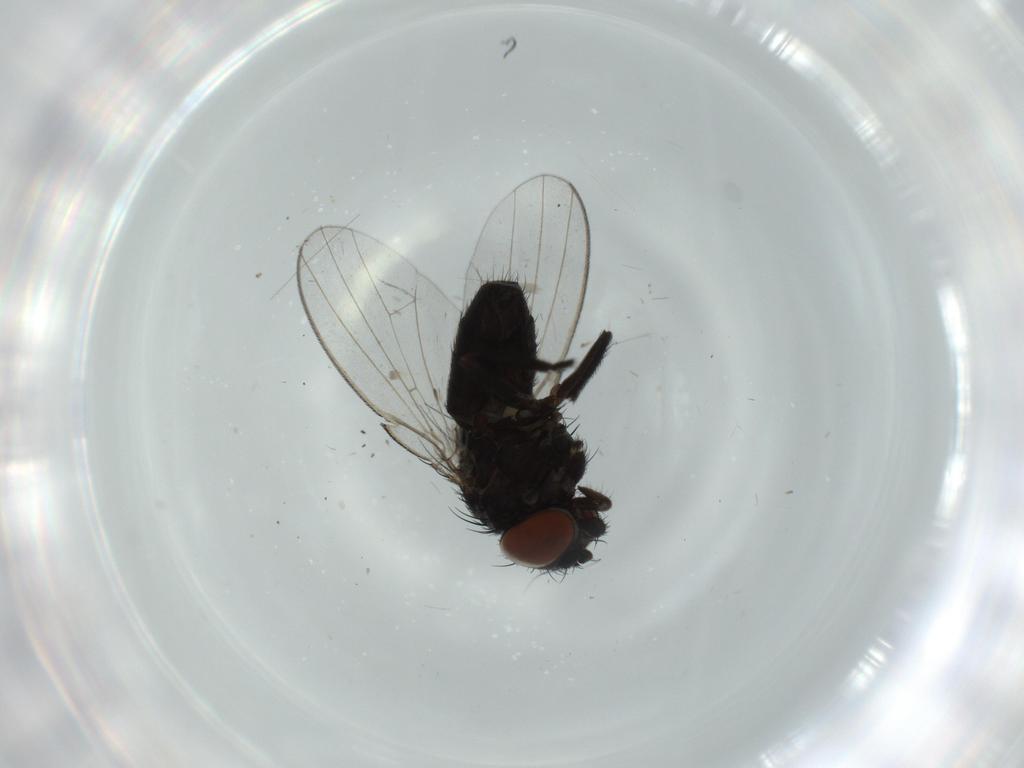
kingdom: Animalia
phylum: Arthropoda
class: Insecta
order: Diptera
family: Milichiidae
